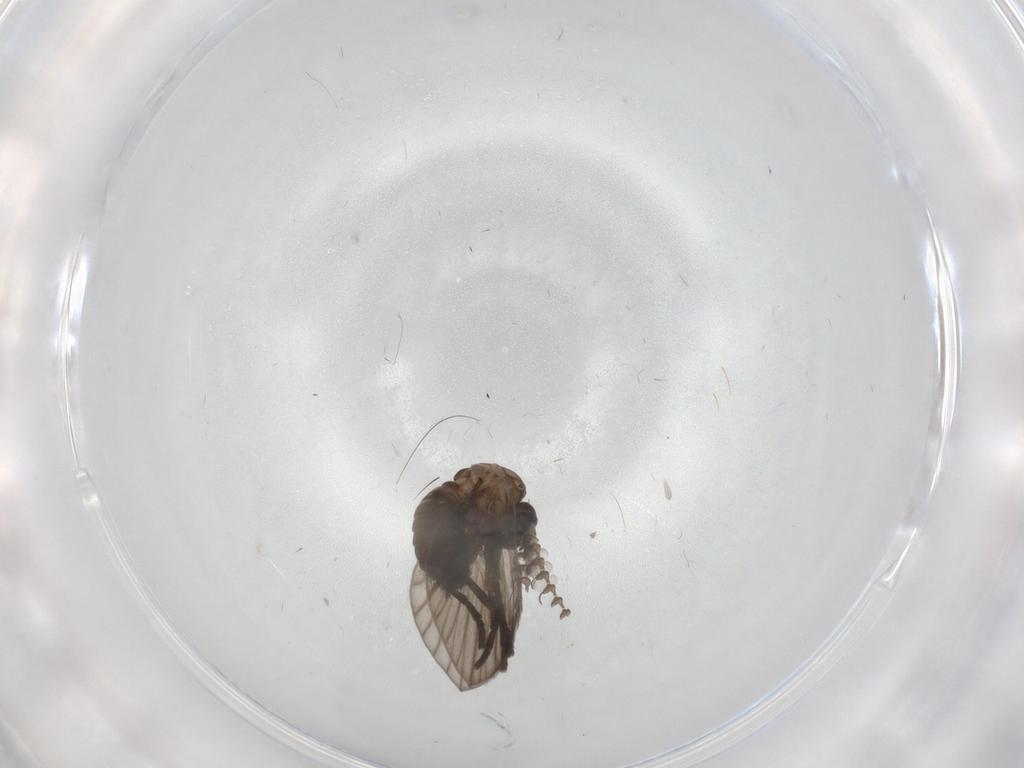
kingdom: Animalia
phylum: Arthropoda
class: Insecta
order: Diptera
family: Psychodidae
